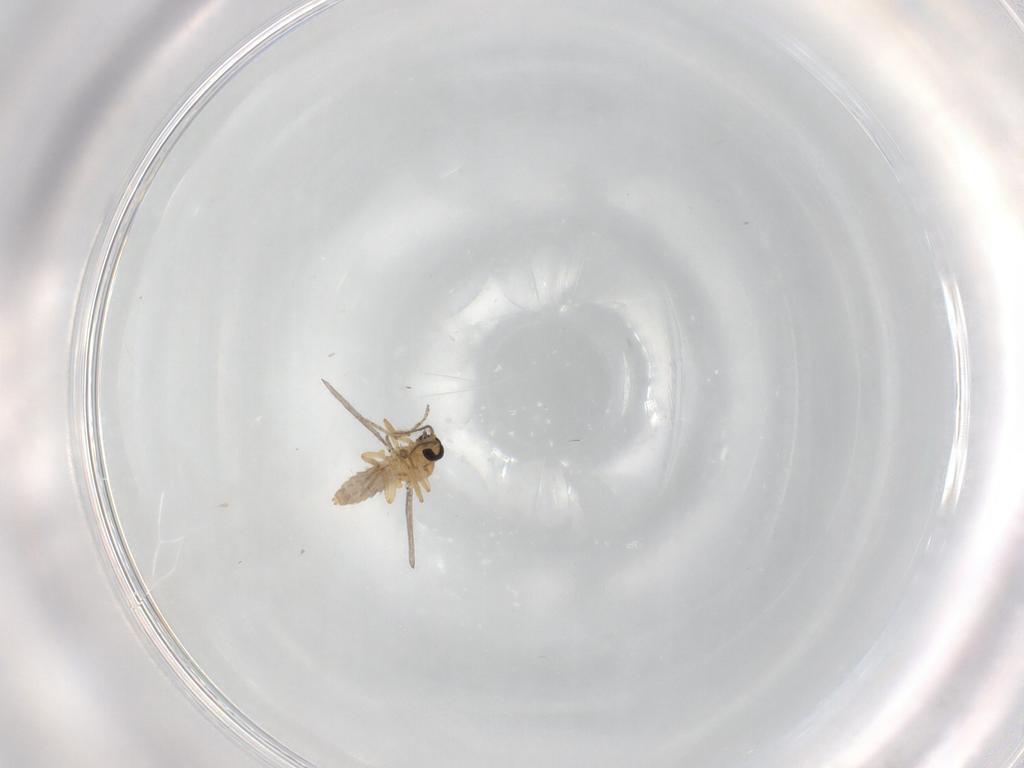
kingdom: Animalia
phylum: Arthropoda
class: Insecta
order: Diptera
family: Ceratopogonidae
